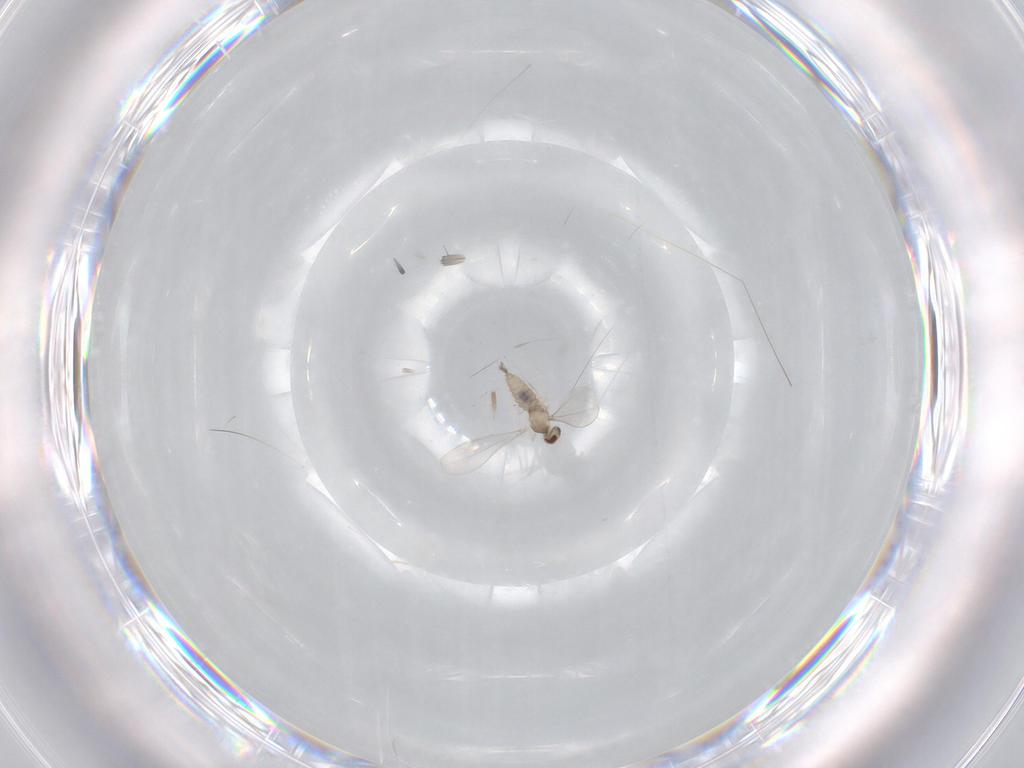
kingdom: Animalia
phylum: Arthropoda
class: Insecta
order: Diptera
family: Cecidomyiidae
